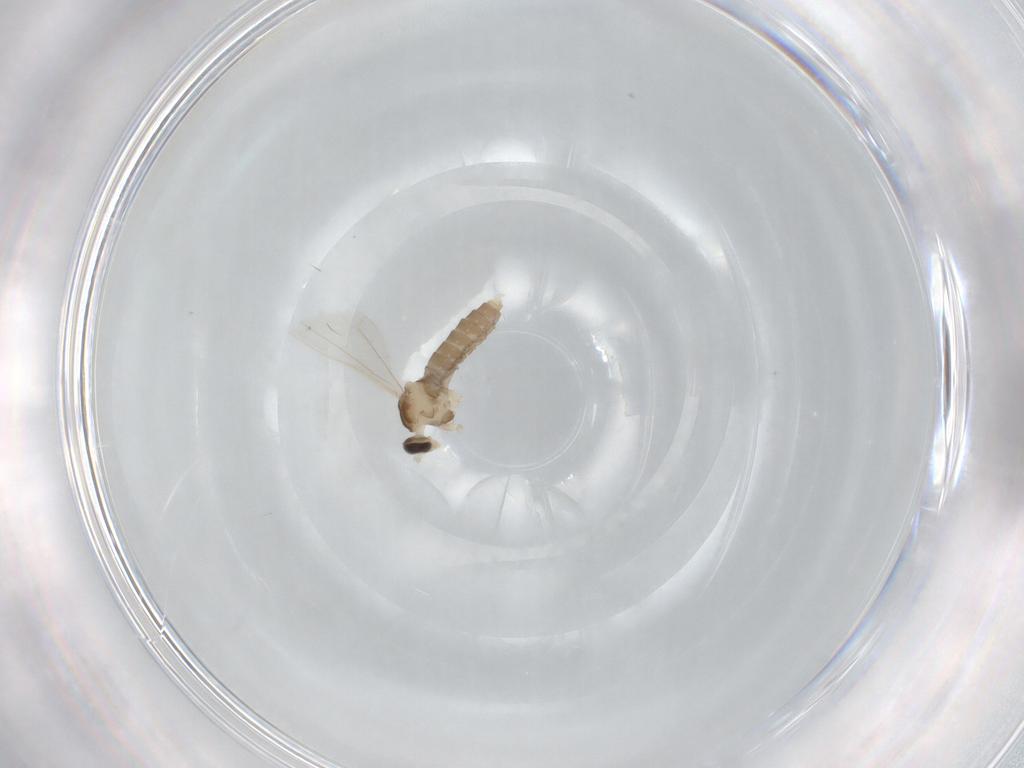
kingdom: Animalia
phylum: Arthropoda
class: Insecta
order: Diptera
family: Cecidomyiidae
